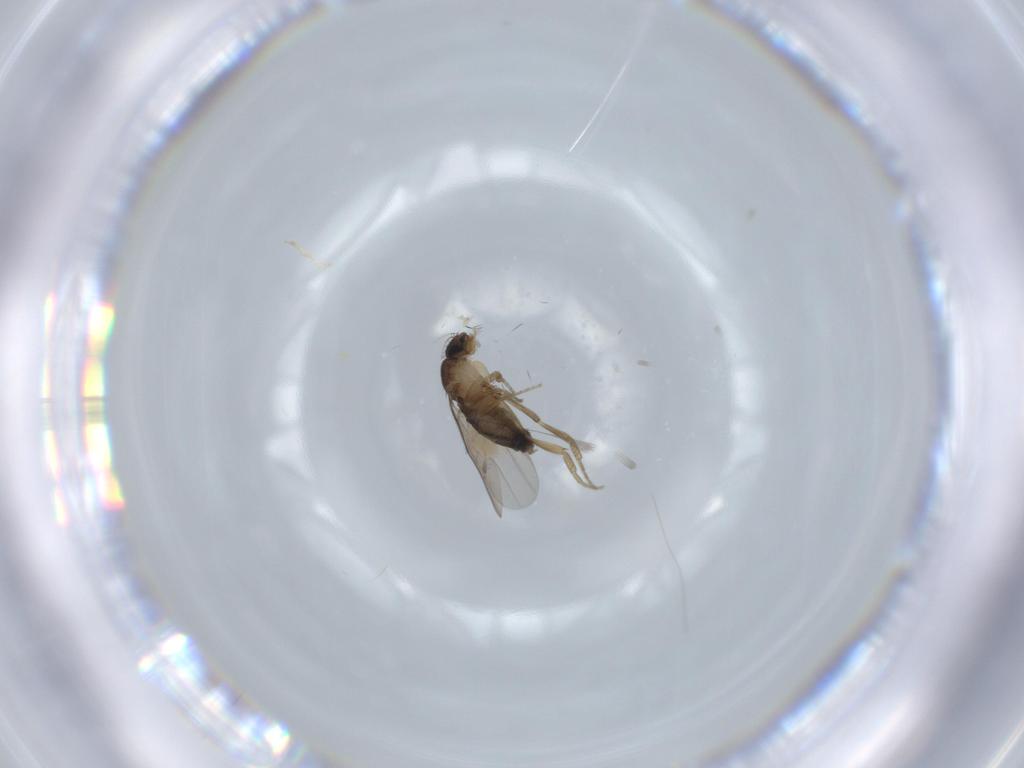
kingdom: Animalia
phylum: Arthropoda
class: Insecta
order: Diptera
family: Phoridae
